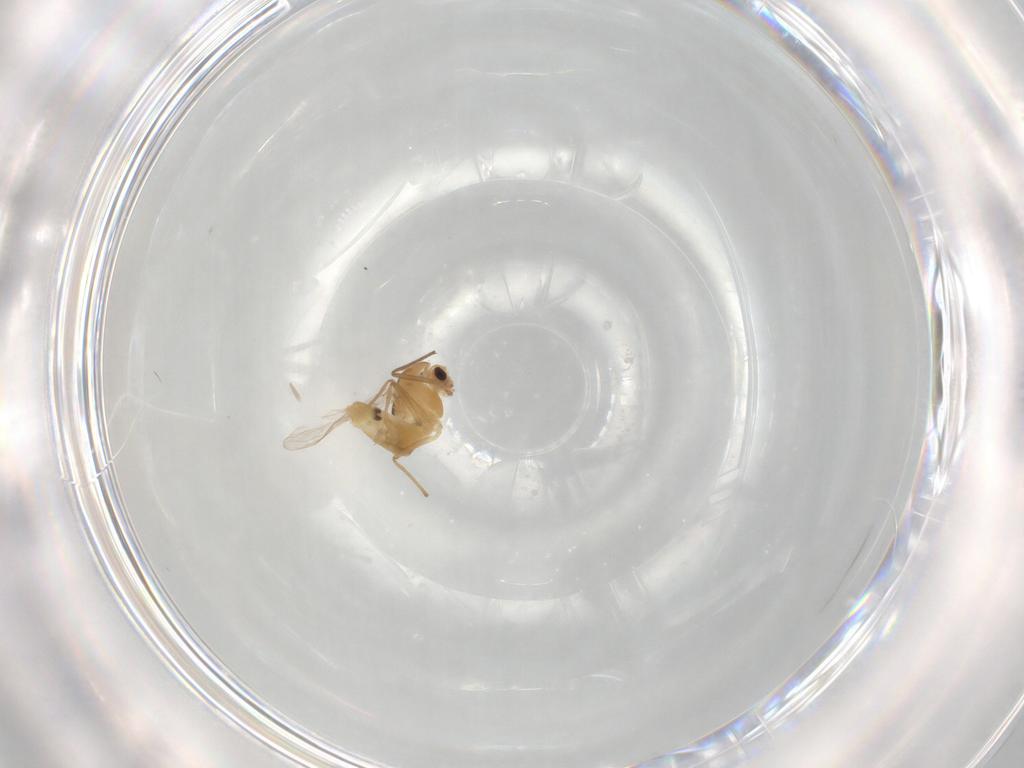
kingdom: Animalia
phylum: Arthropoda
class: Insecta
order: Diptera
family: Chironomidae
